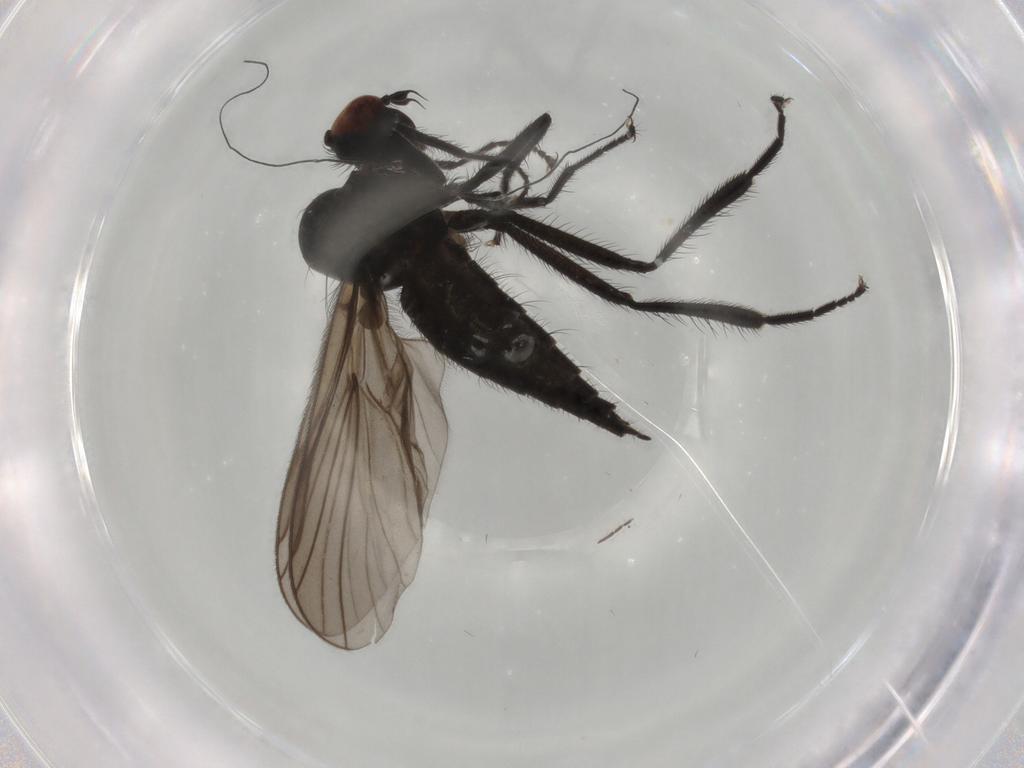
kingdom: Animalia
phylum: Arthropoda
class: Insecta
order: Diptera
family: Hybotidae
